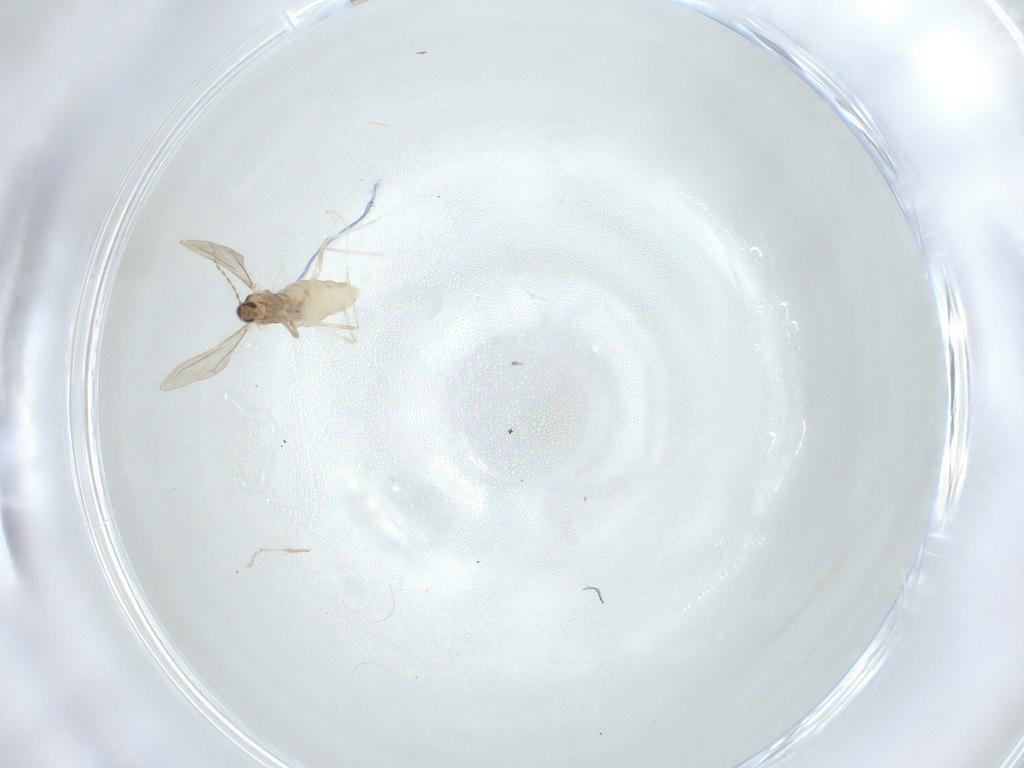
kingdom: Animalia
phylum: Arthropoda
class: Insecta
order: Diptera
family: Cecidomyiidae
